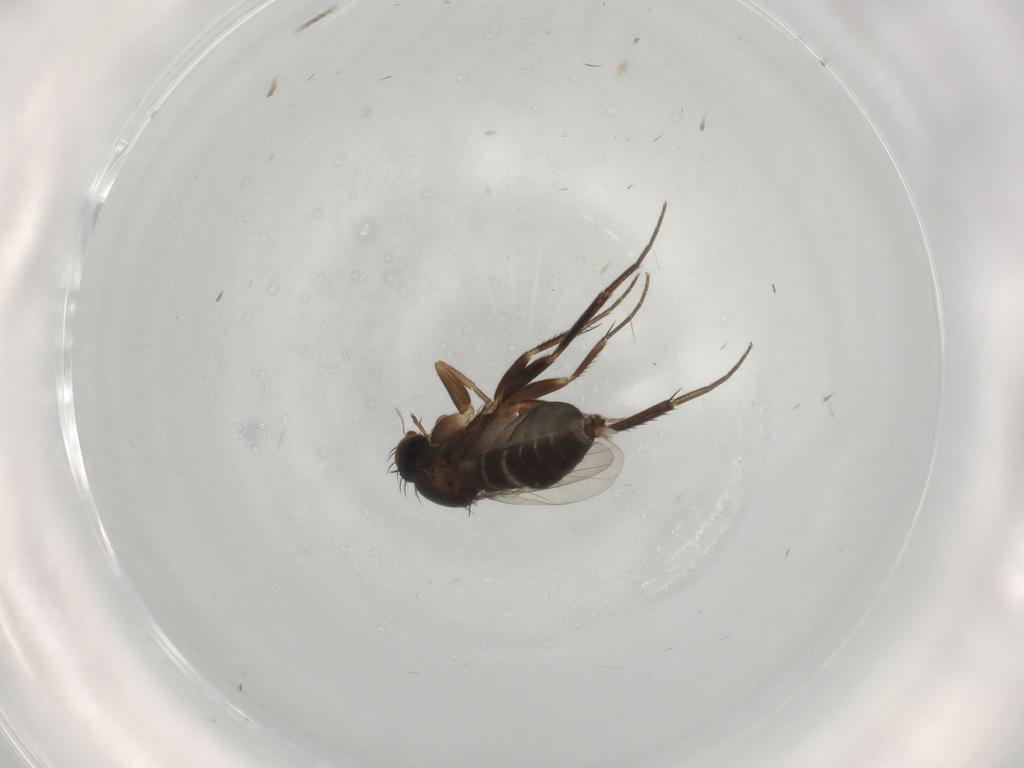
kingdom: Animalia
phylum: Arthropoda
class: Insecta
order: Diptera
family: Phoridae
